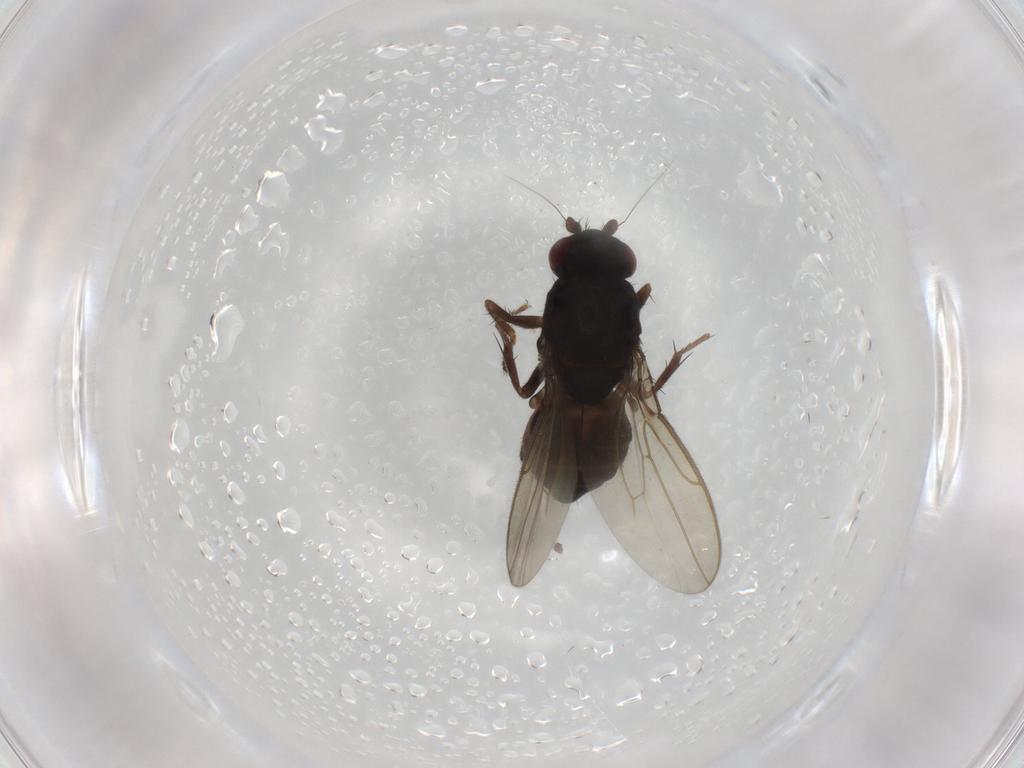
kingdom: Animalia
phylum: Arthropoda
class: Insecta
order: Diptera
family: Sphaeroceridae
